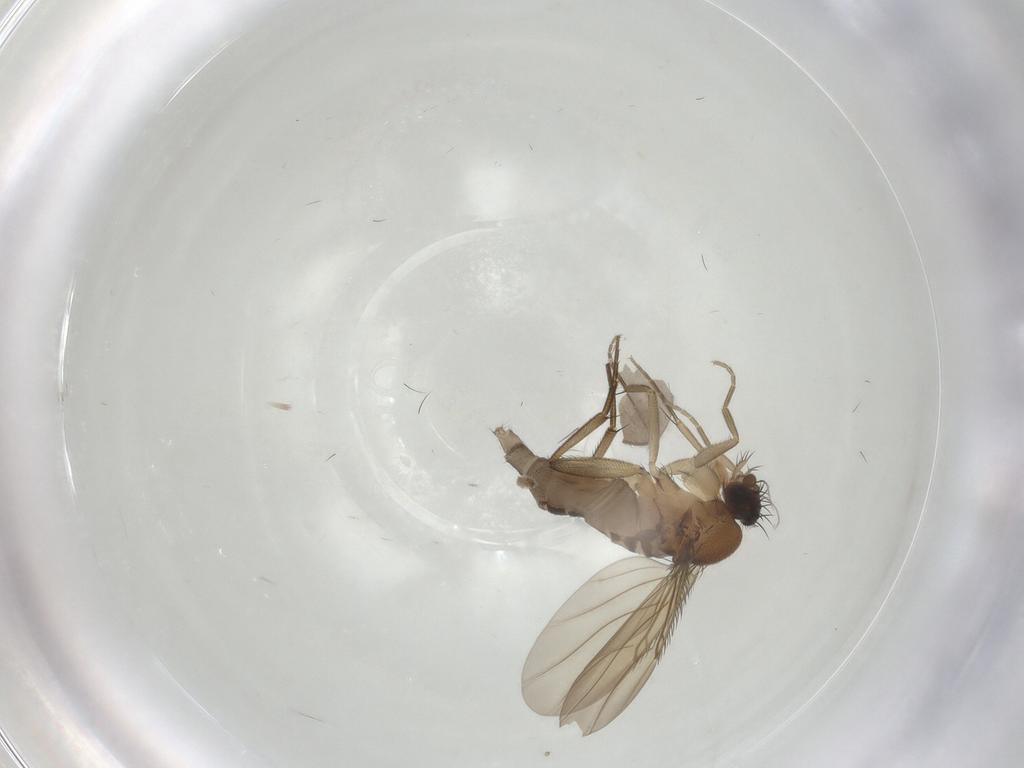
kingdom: Animalia
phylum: Arthropoda
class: Insecta
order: Diptera
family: Phoridae
